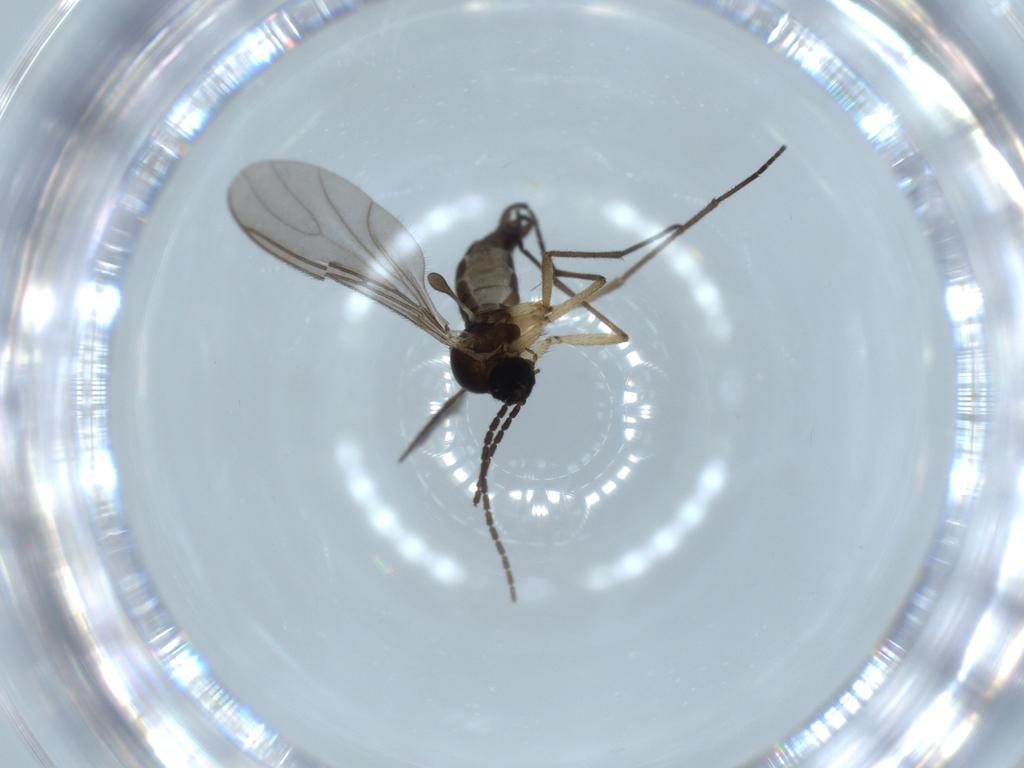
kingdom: Animalia
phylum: Arthropoda
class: Insecta
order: Diptera
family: Sciaridae
